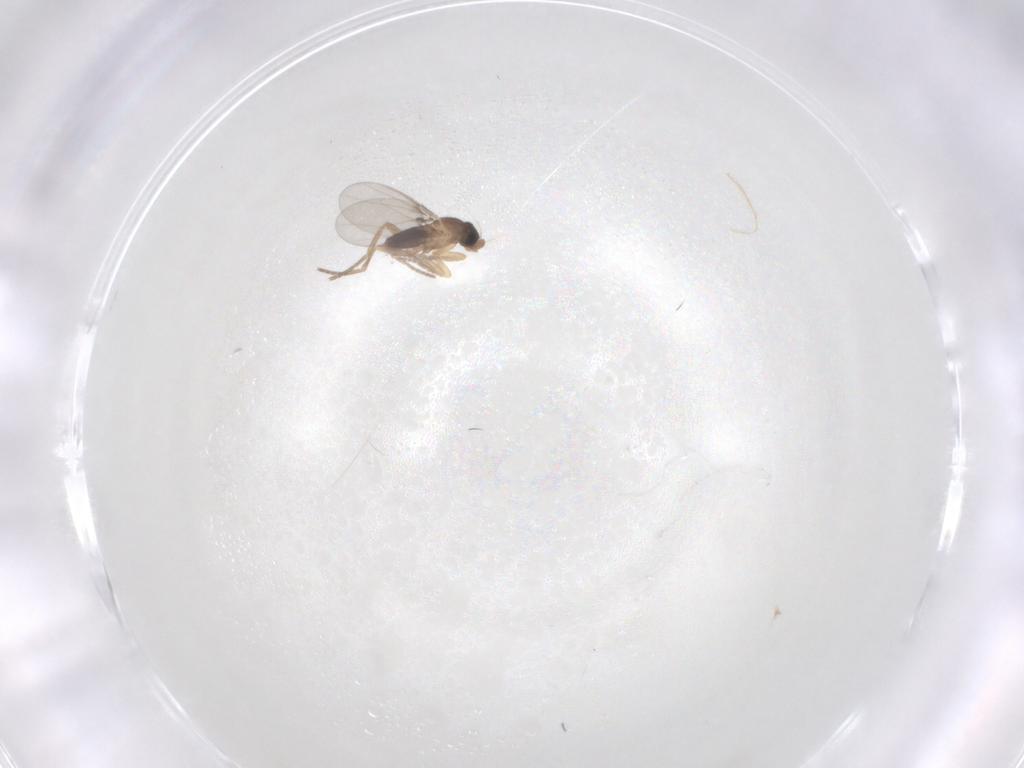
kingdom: Animalia
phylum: Arthropoda
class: Insecta
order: Diptera
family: Phoridae
